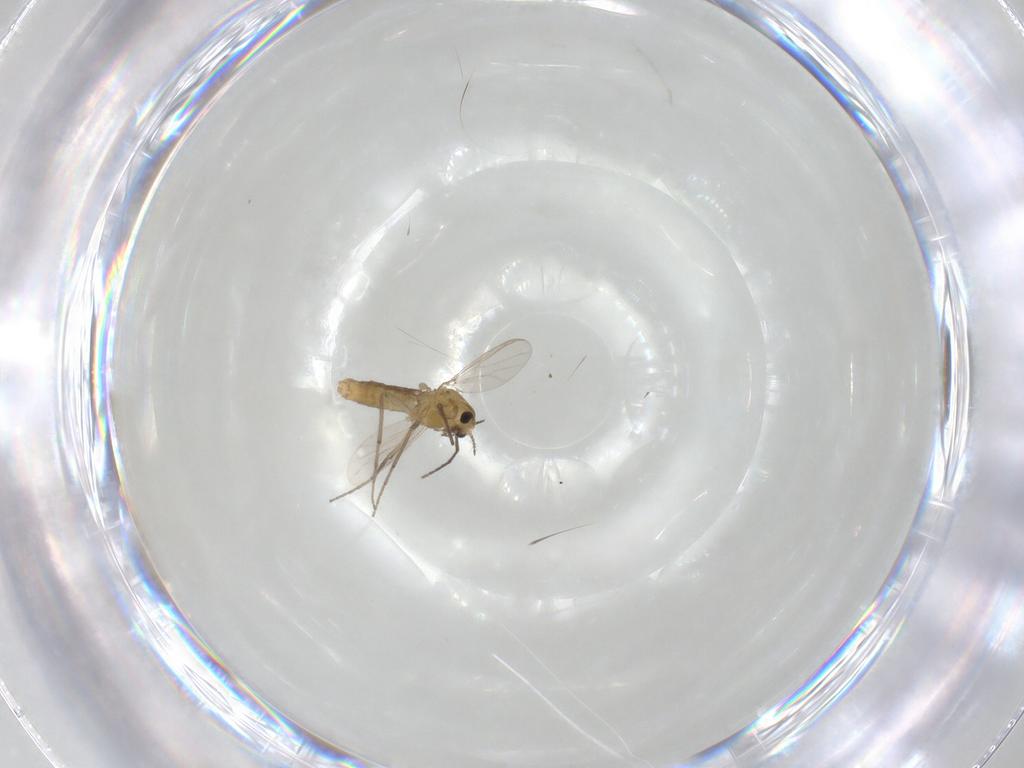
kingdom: Animalia
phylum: Arthropoda
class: Insecta
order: Diptera
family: Chironomidae
